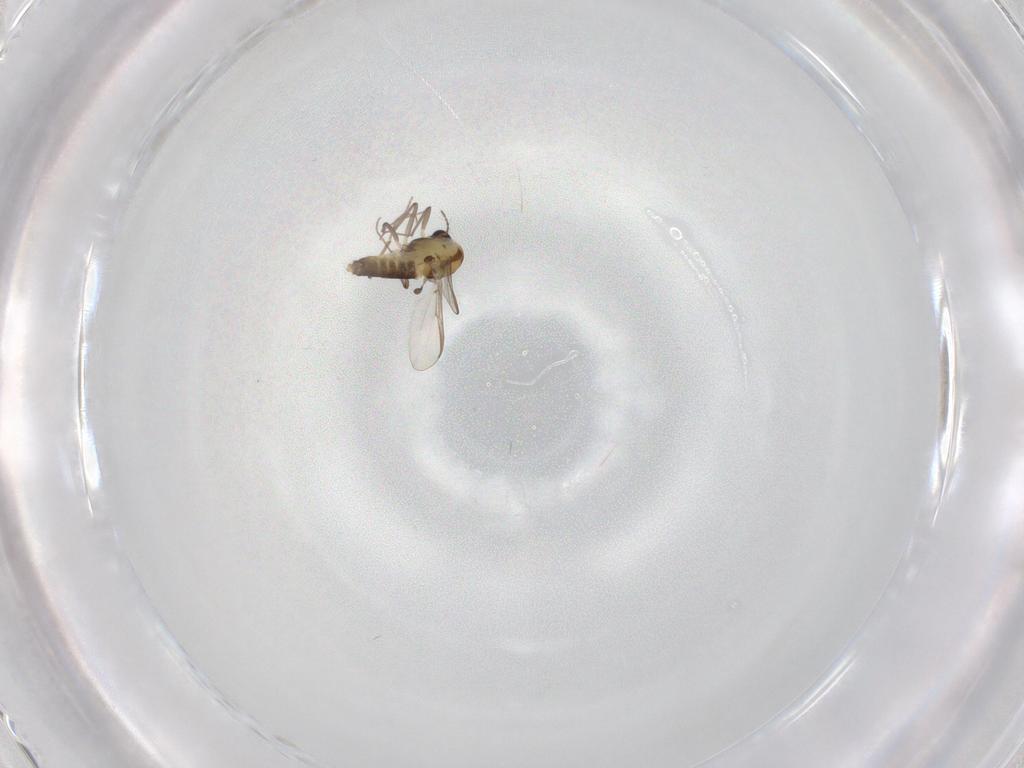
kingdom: Animalia
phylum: Arthropoda
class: Insecta
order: Diptera
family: Chironomidae
